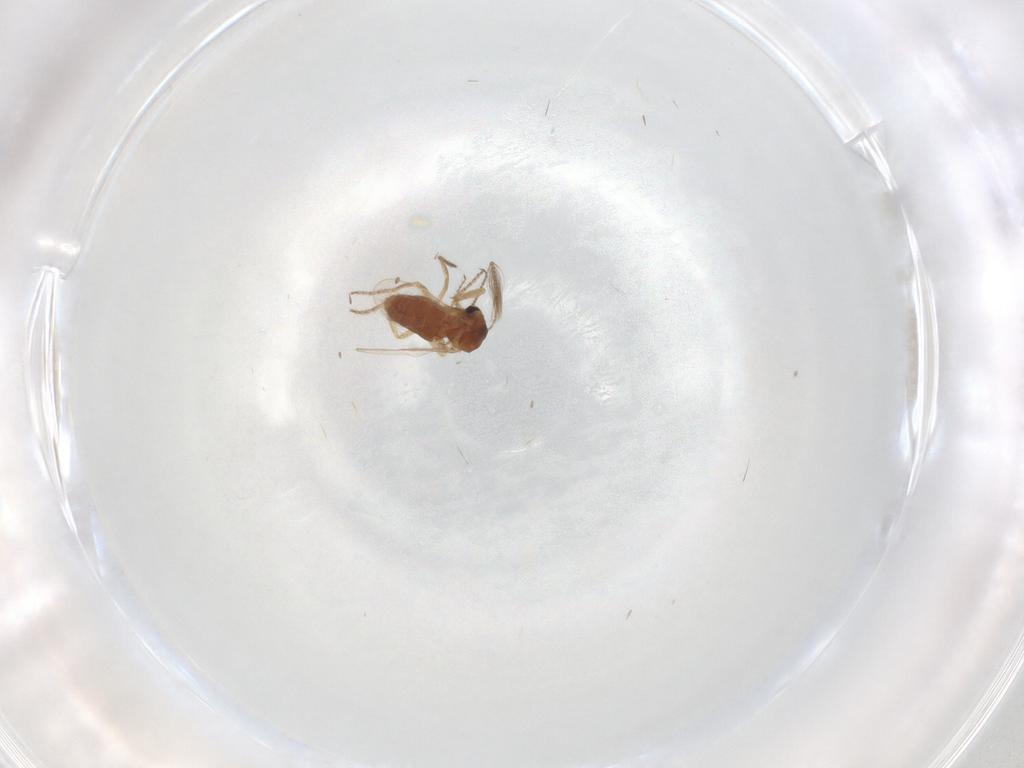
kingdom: Animalia
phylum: Arthropoda
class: Insecta
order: Diptera
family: Ceratopogonidae
